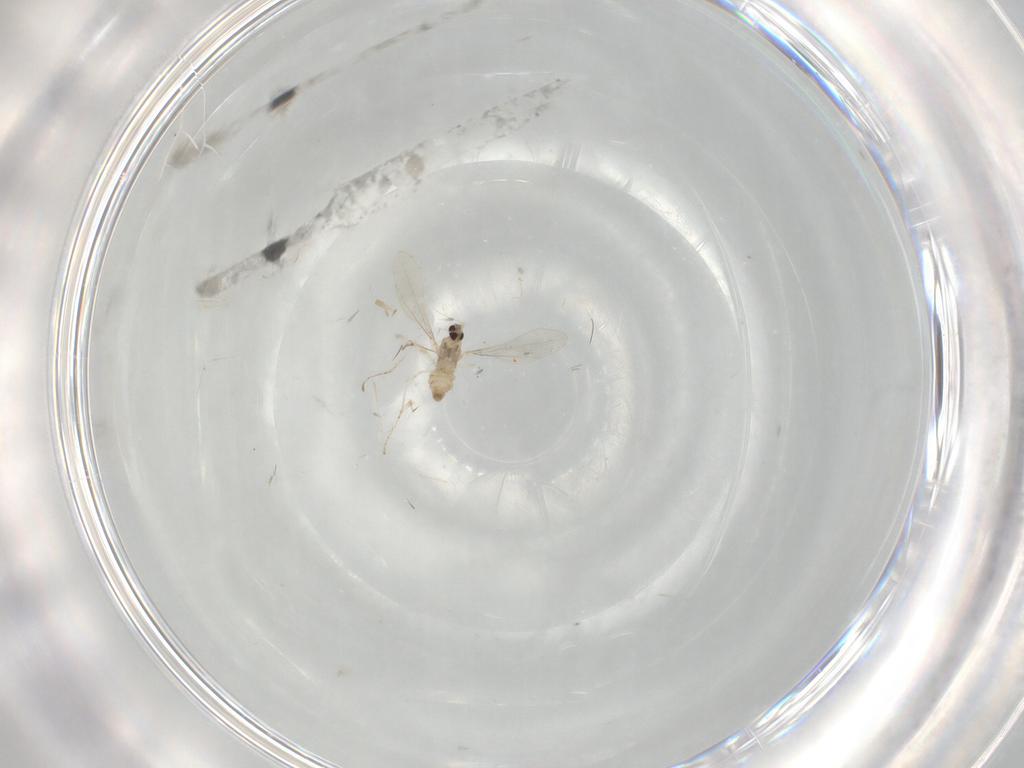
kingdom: Animalia
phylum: Arthropoda
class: Insecta
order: Diptera
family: Cecidomyiidae
